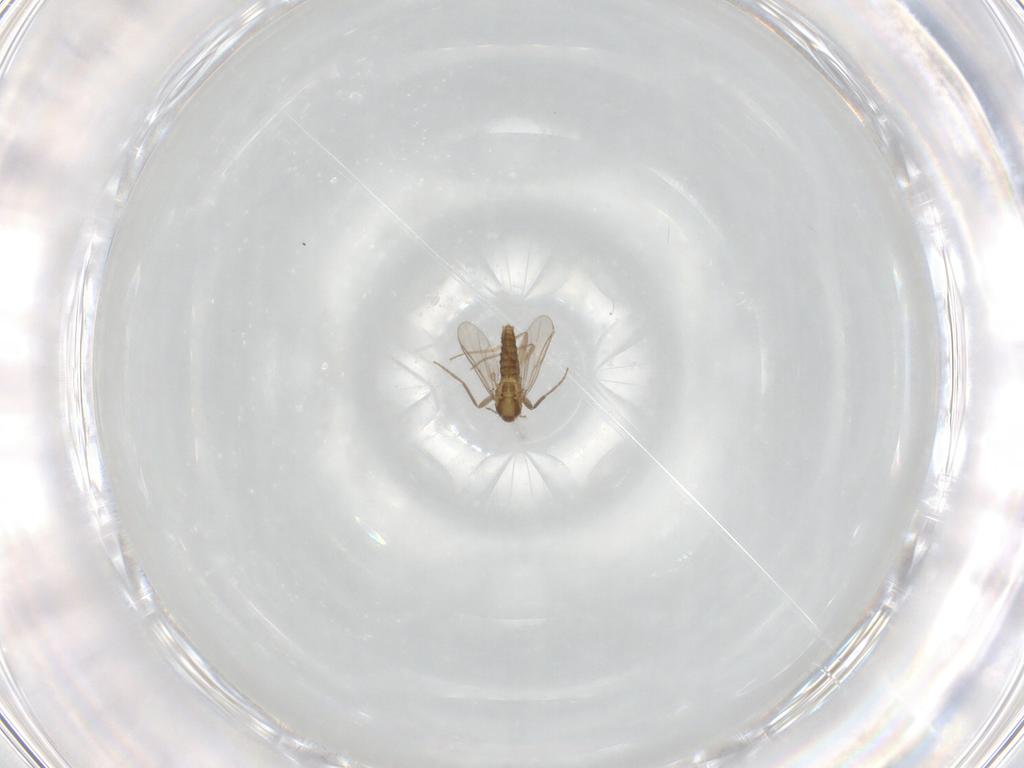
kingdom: Animalia
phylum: Arthropoda
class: Insecta
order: Diptera
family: Chironomidae
